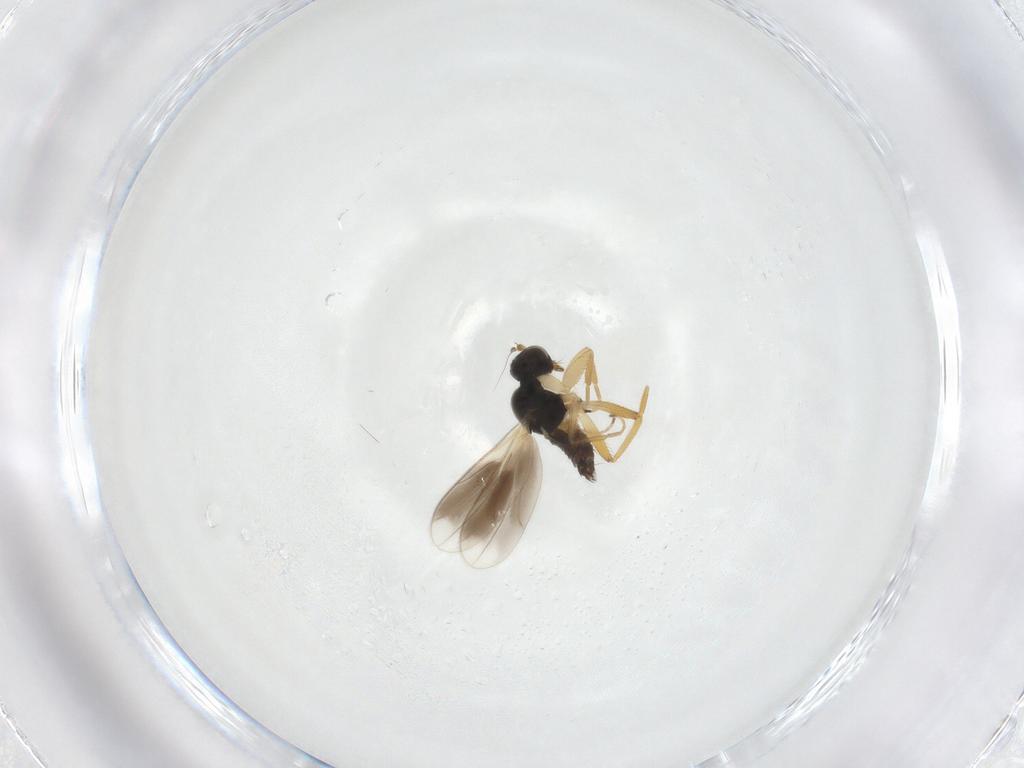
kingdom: Animalia
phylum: Arthropoda
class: Insecta
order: Diptera
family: Hybotidae
